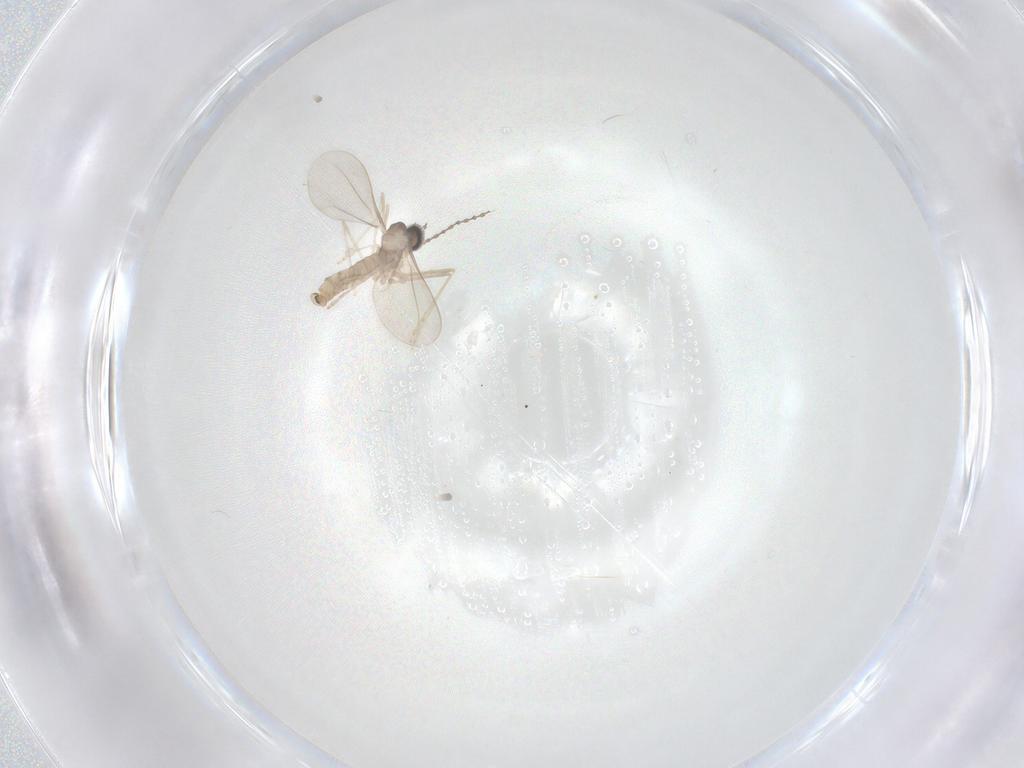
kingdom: Animalia
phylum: Arthropoda
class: Insecta
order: Diptera
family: Cecidomyiidae
